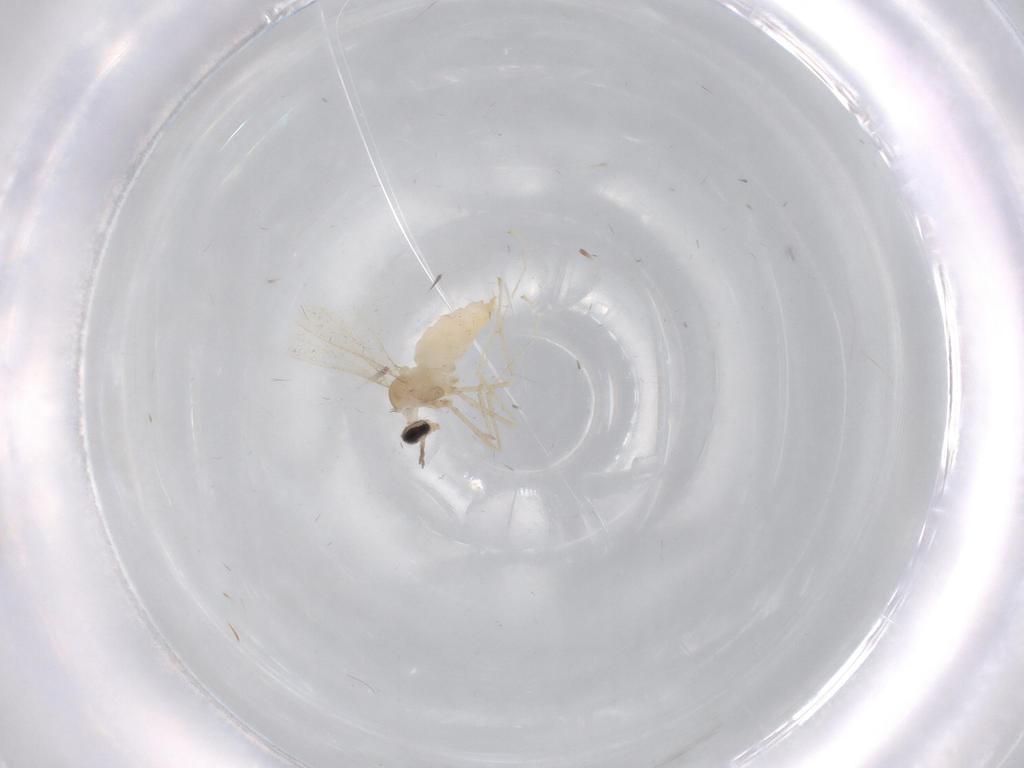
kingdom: Animalia
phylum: Arthropoda
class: Insecta
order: Diptera
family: Cecidomyiidae
